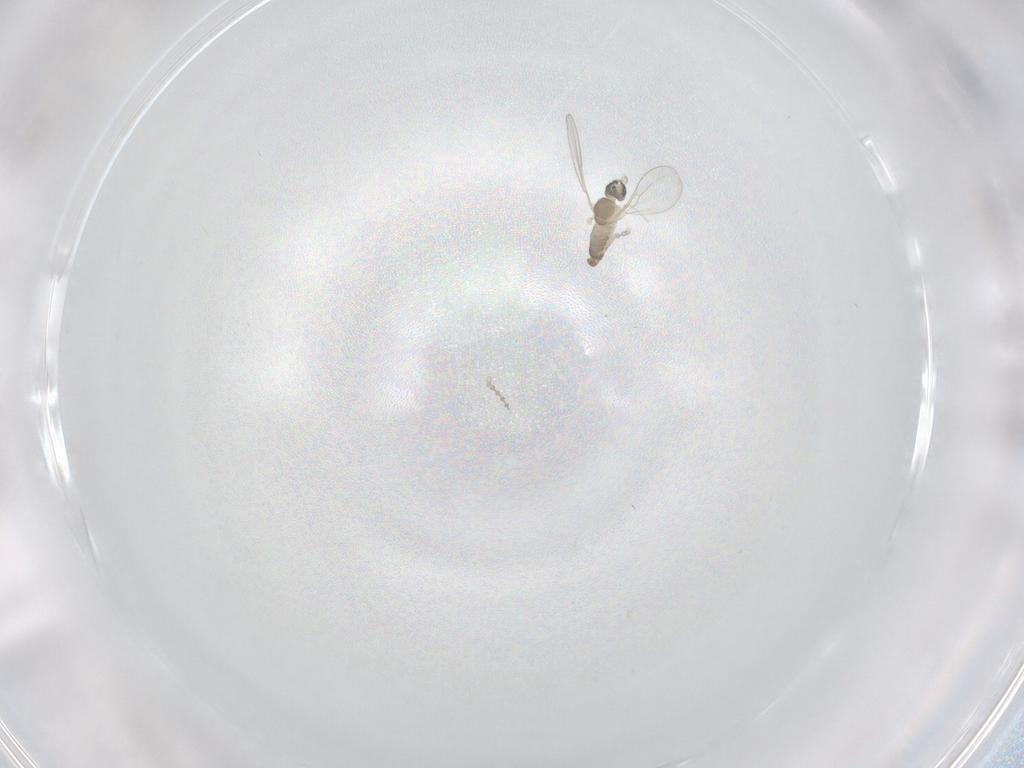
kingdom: Animalia
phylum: Arthropoda
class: Insecta
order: Diptera
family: Cecidomyiidae
